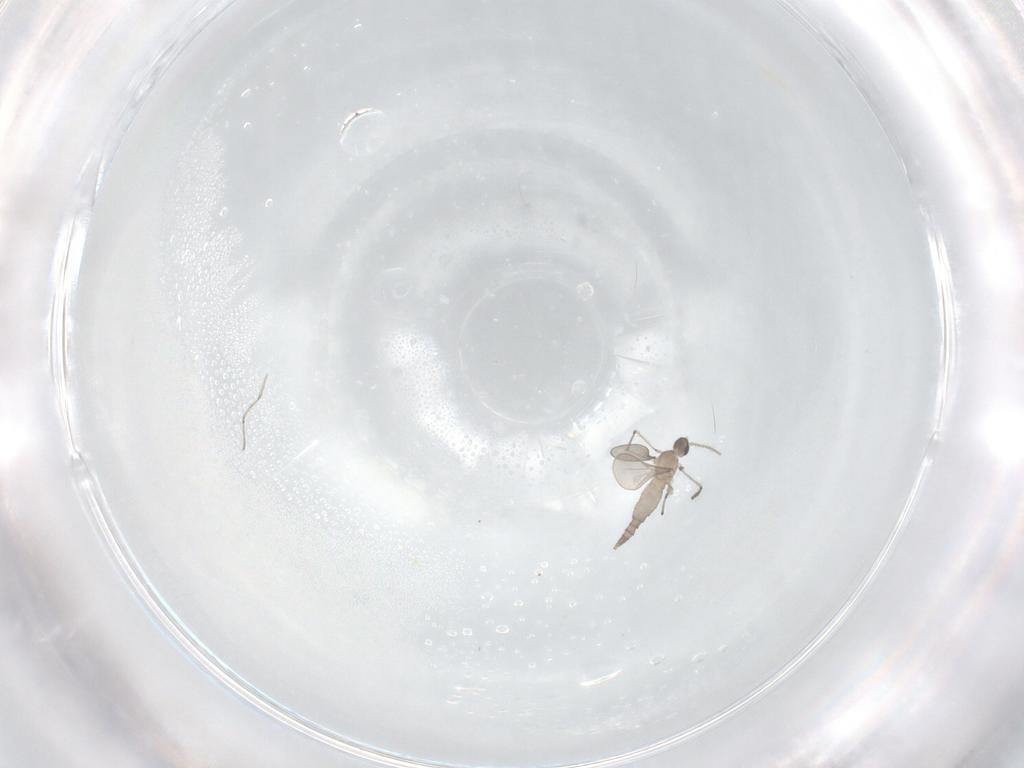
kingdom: Animalia
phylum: Arthropoda
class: Insecta
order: Diptera
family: Cecidomyiidae
